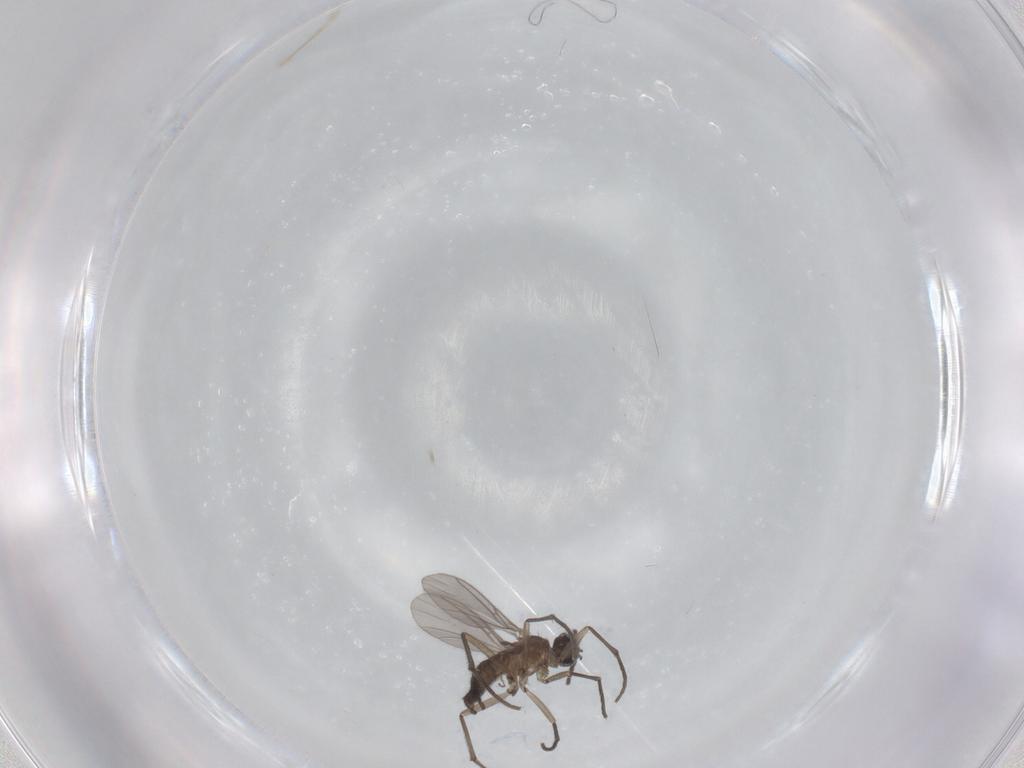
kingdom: Animalia
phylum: Arthropoda
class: Insecta
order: Diptera
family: Sciaridae
